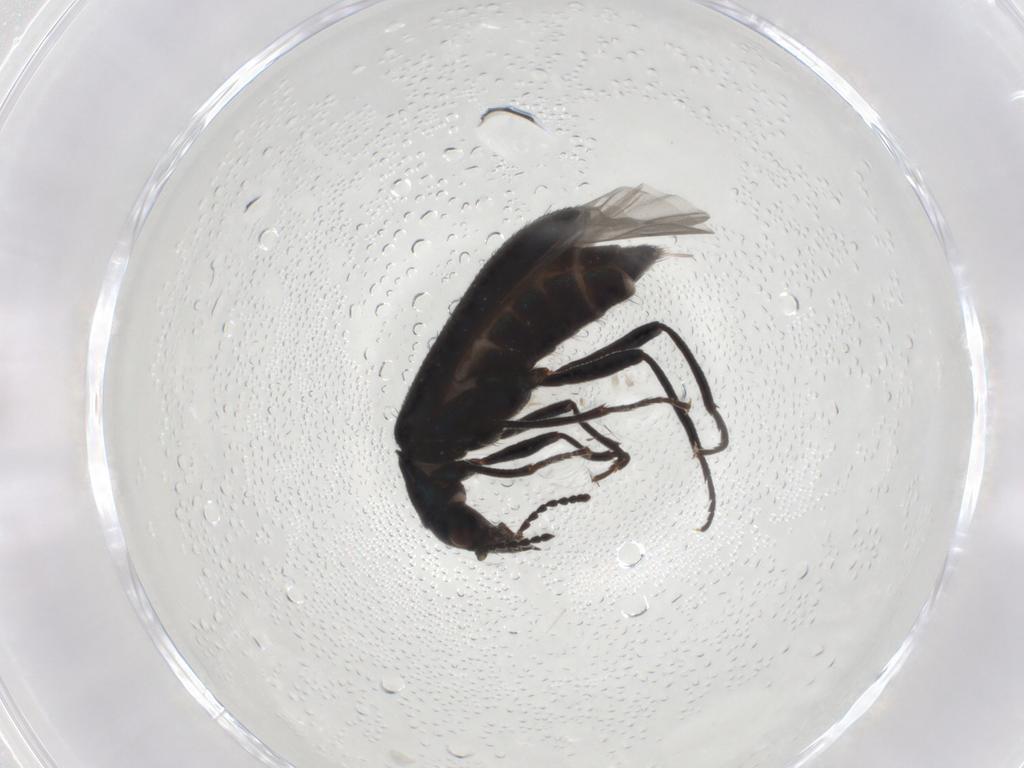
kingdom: Animalia
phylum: Arthropoda
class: Insecta
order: Coleoptera
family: Melyridae
